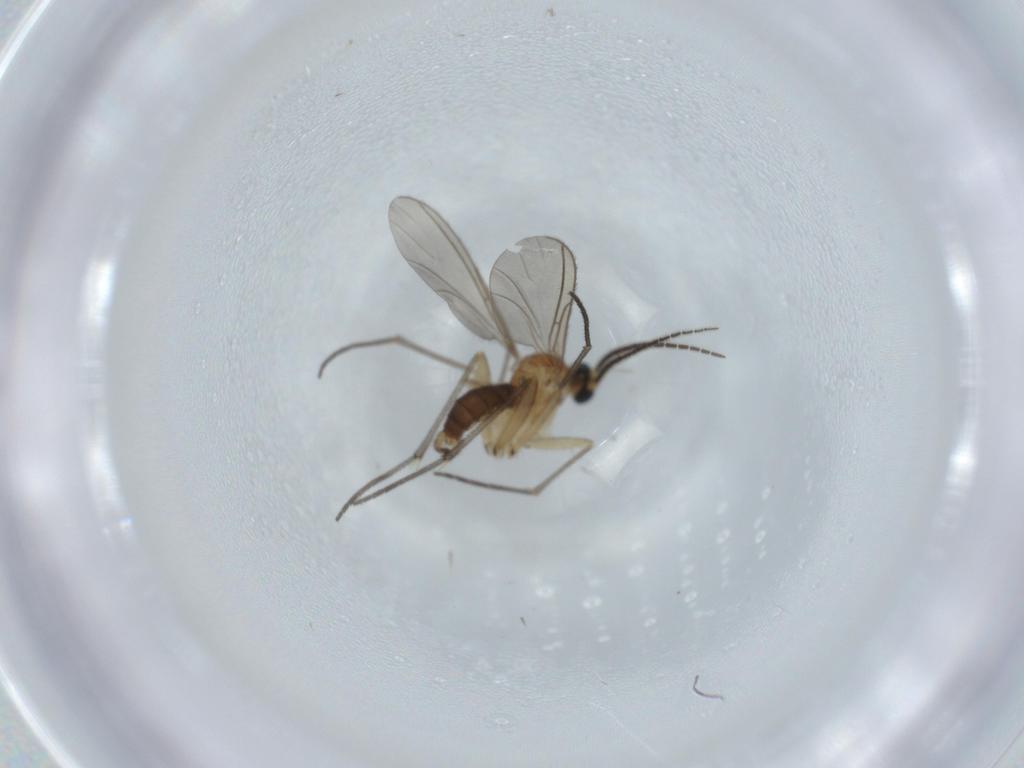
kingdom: Animalia
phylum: Arthropoda
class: Insecta
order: Diptera
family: Sciaridae
